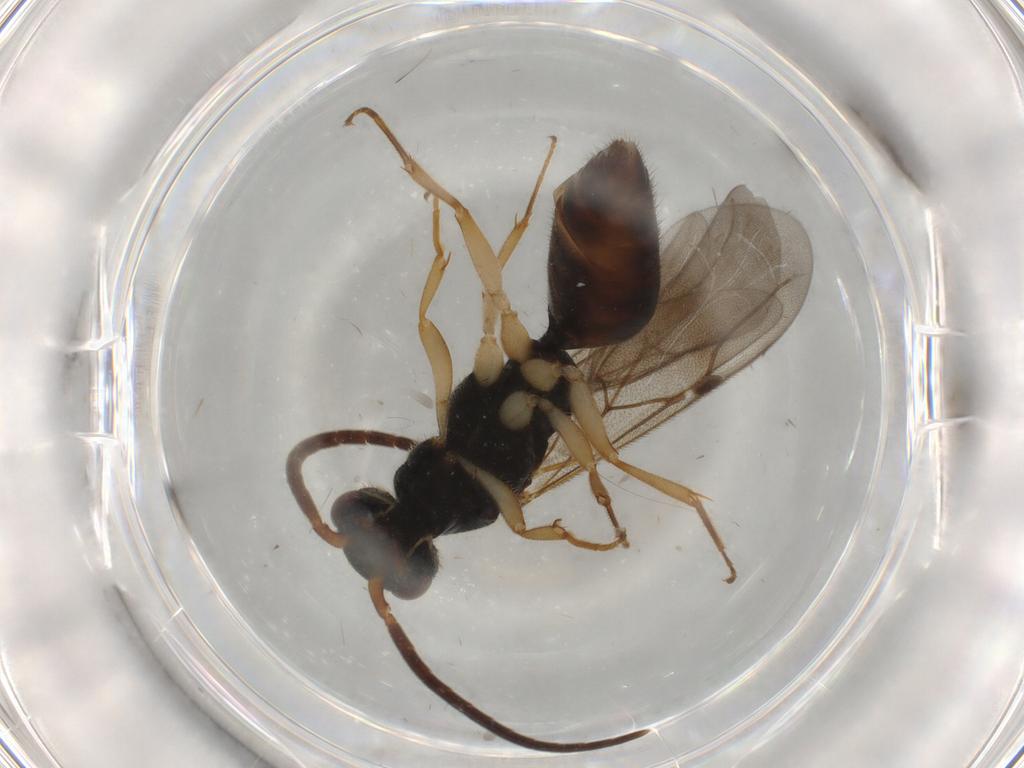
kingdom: Animalia
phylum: Arthropoda
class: Insecta
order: Hymenoptera
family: Bethylidae
